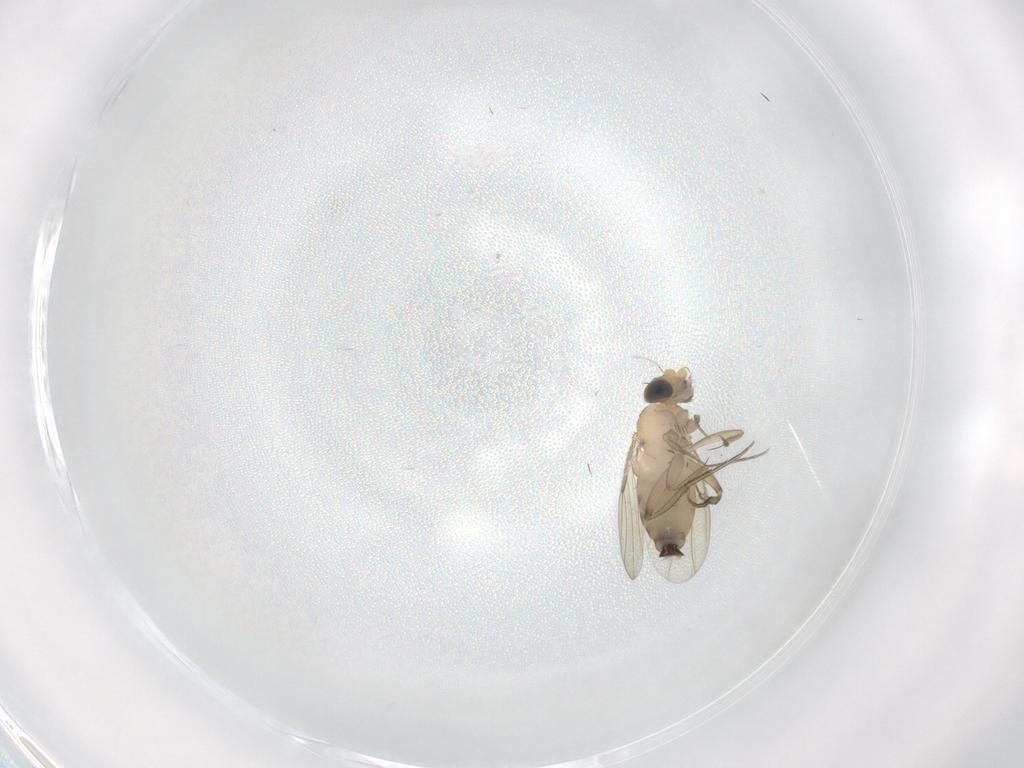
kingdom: Animalia
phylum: Arthropoda
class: Insecta
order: Diptera
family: Phoridae
